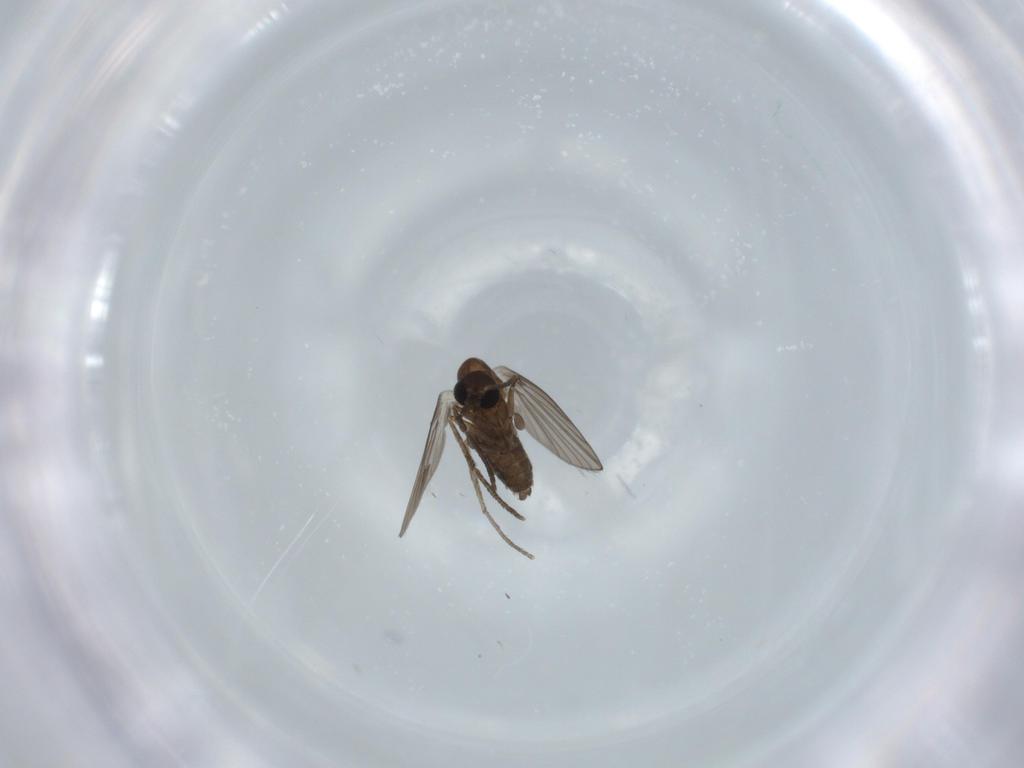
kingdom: Animalia
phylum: Arthropoda
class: Insecta
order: Diptera
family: Psychodidae
